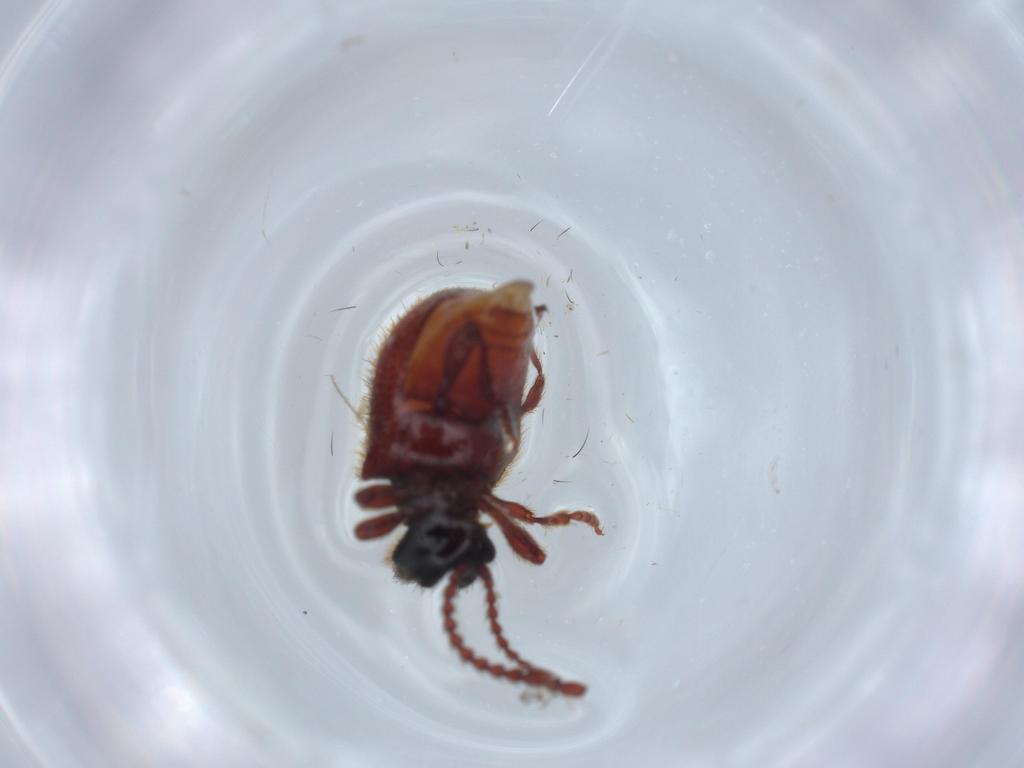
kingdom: Animalia
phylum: Arthropoda
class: Insecta
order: Coleoptera
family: Ptinidae
